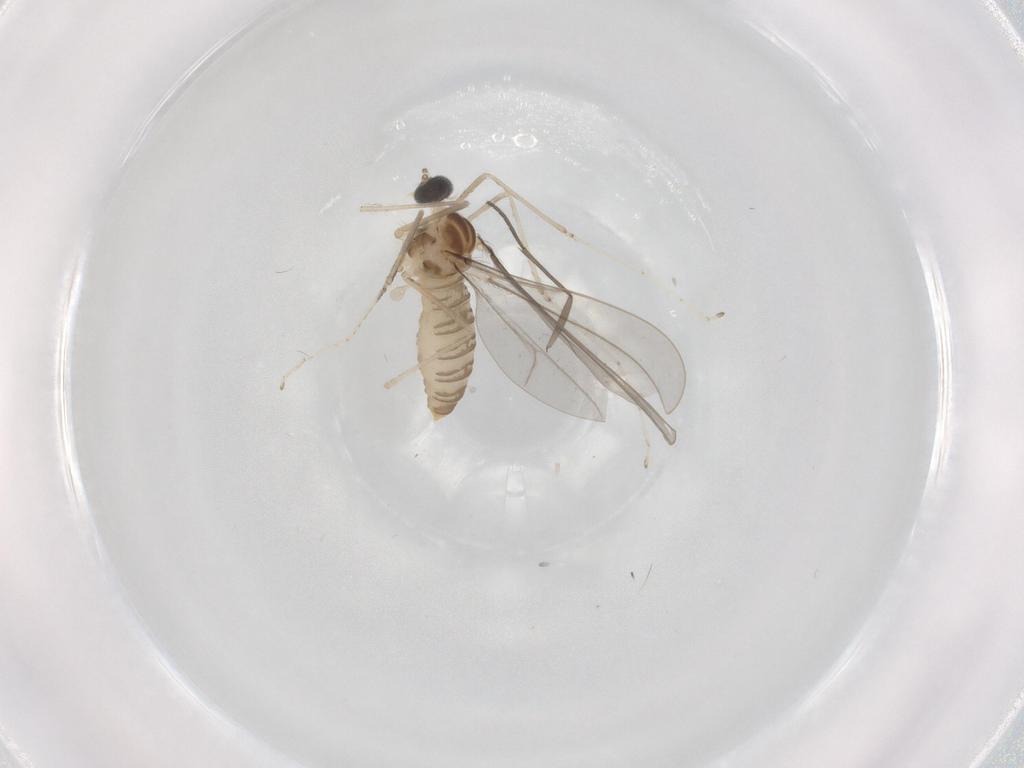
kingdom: Animalia
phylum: Arthropoda
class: Insecta
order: Diptera
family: Cecidomyiidae
